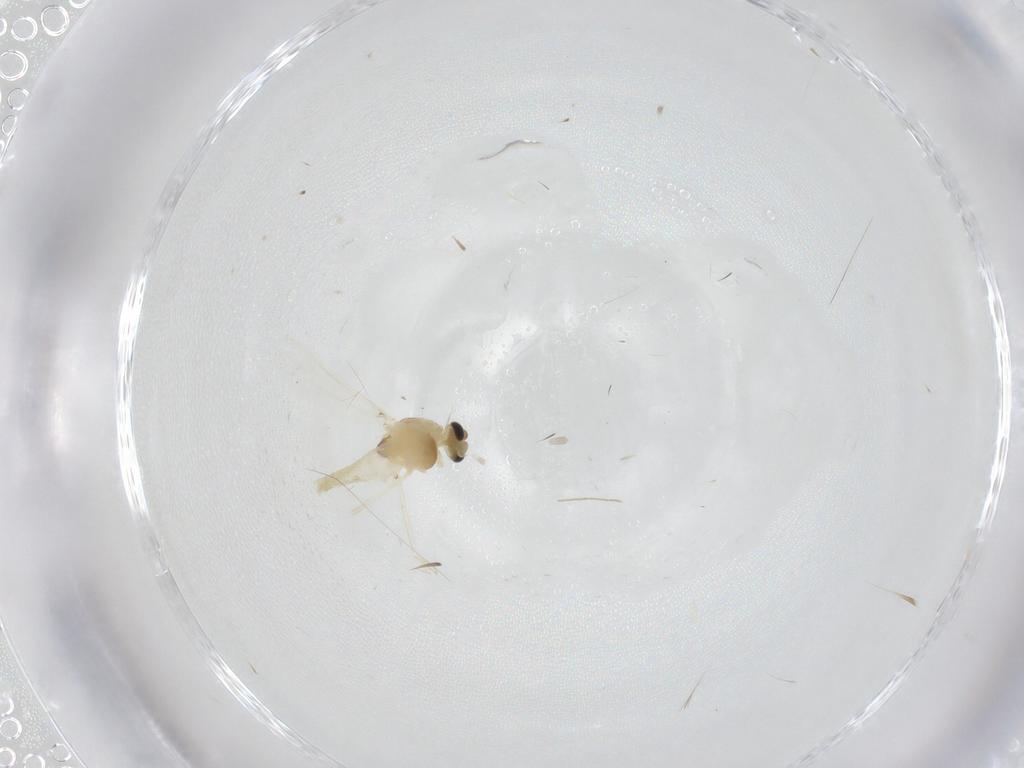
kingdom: Animalia
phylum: Arthropoda
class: Insecta
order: Diptera
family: Chironomidae
